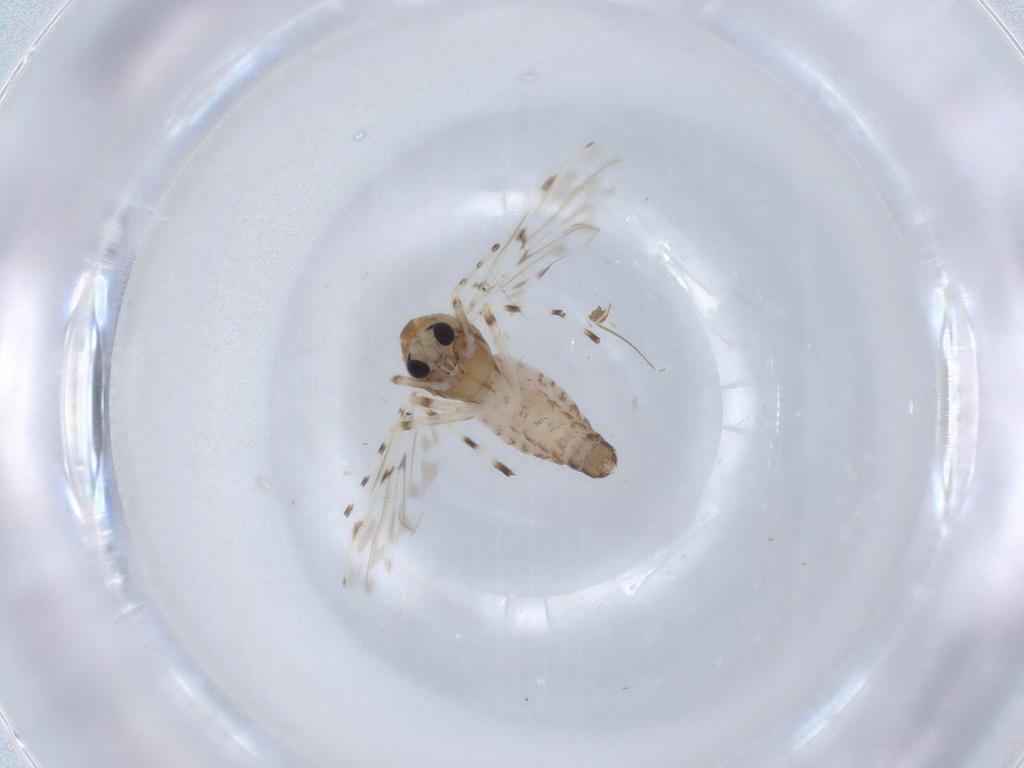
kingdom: Animalia
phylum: Arthropoda
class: Insecta
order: Diptera
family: Chironomidae
